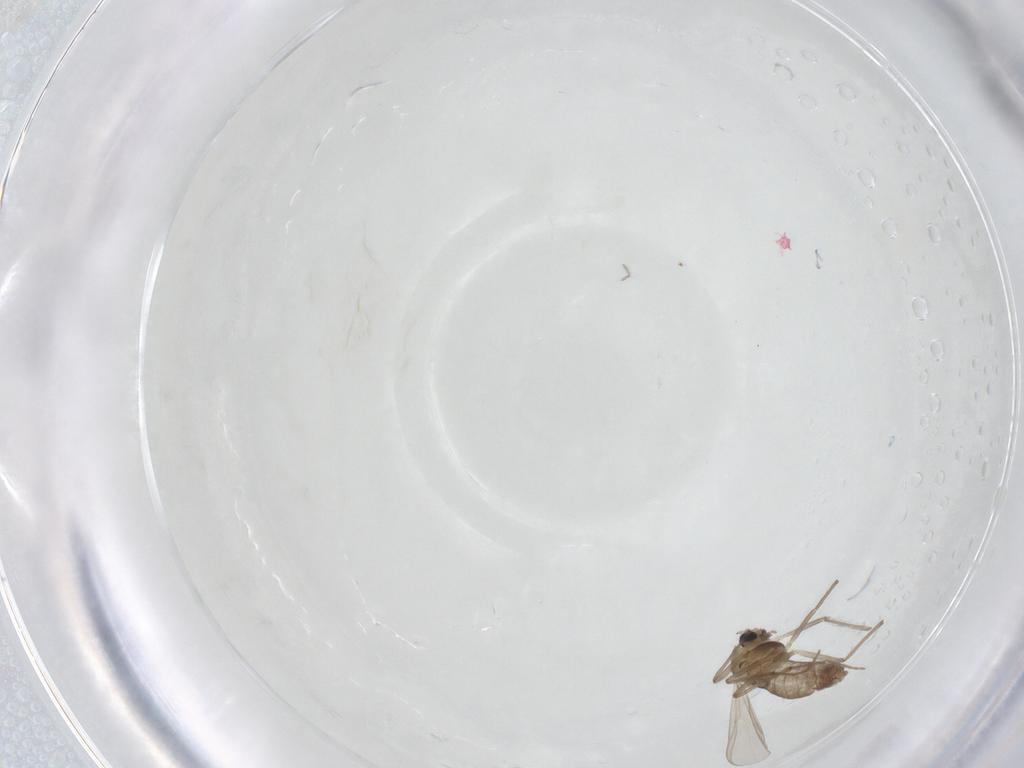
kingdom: Animalia
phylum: Arthropoda
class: Insecta
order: Diptera
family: Chironomidae
